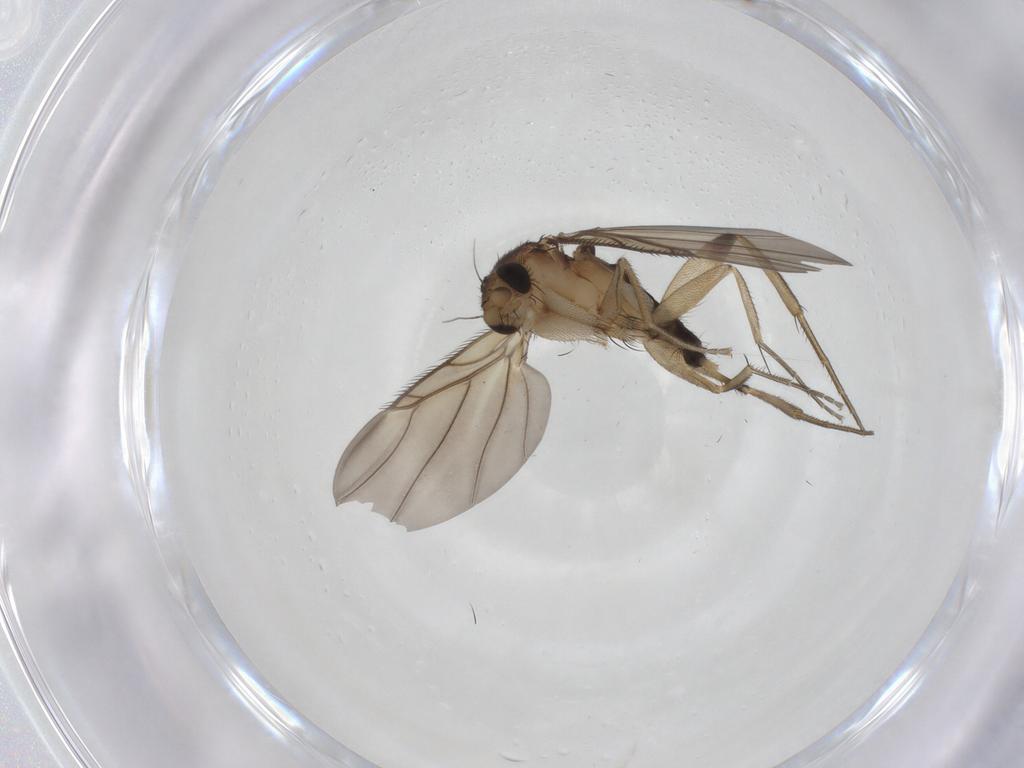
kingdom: Animalia
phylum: Arthropoda
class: Insecta
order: Diptera
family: Phoridae
